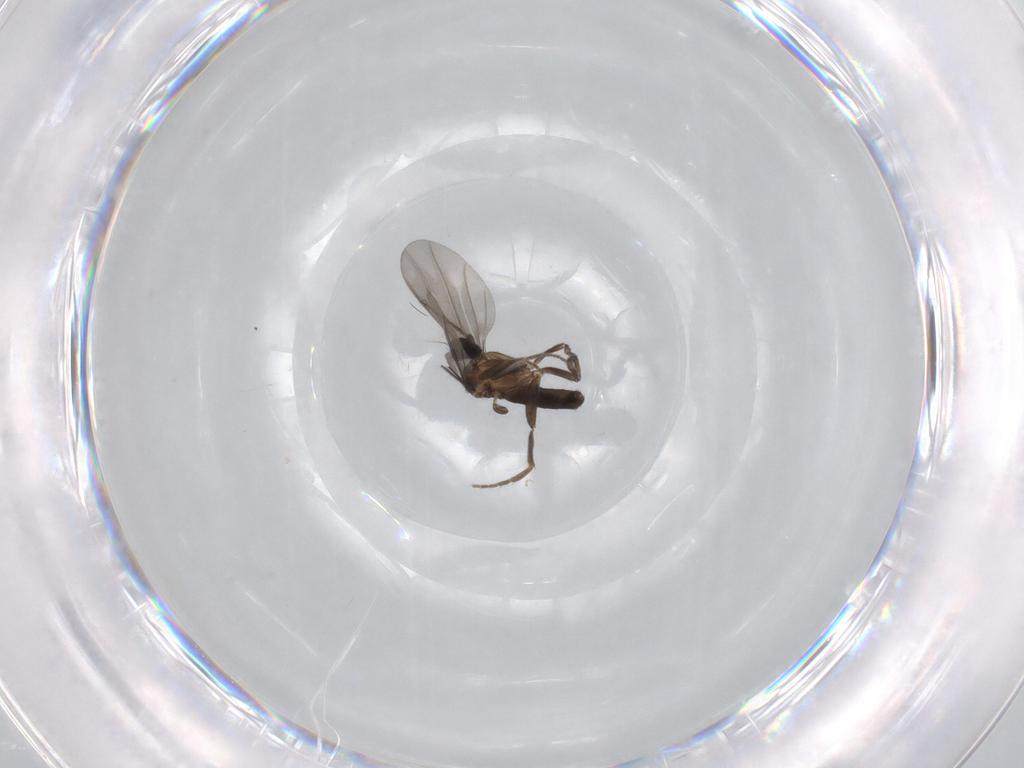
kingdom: Animalia
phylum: Arthropoda
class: Insecta
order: Diptera
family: Phoridae
